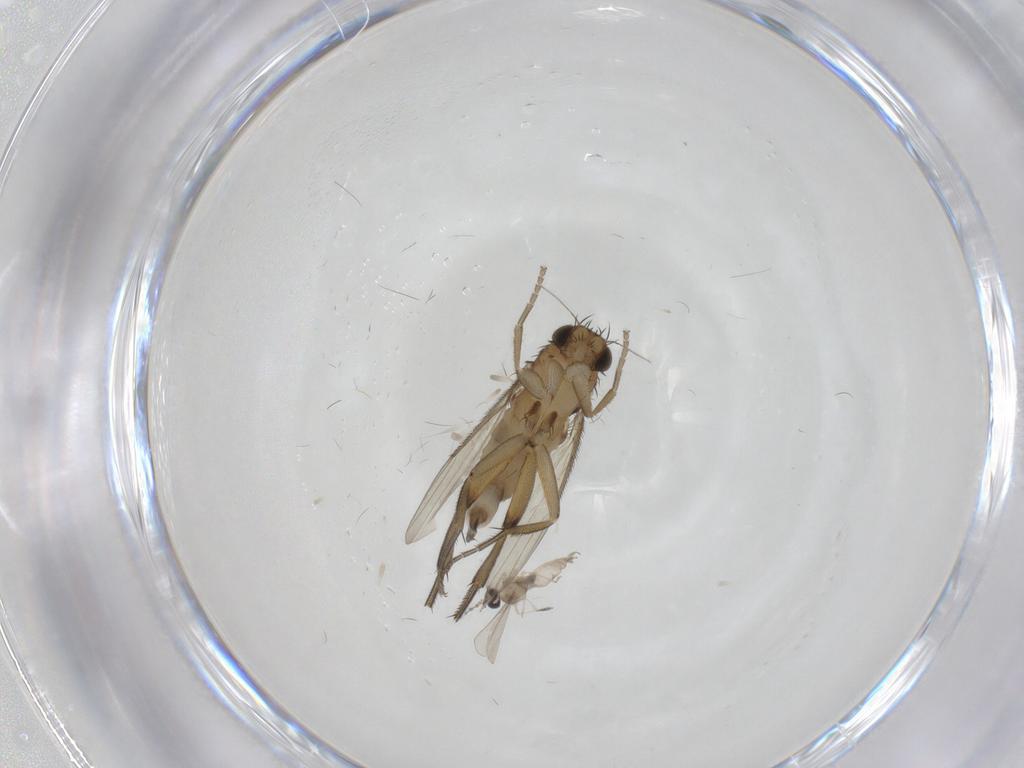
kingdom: Animalia
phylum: Arthropoda
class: Insecta
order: Diptera
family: Phoridae
